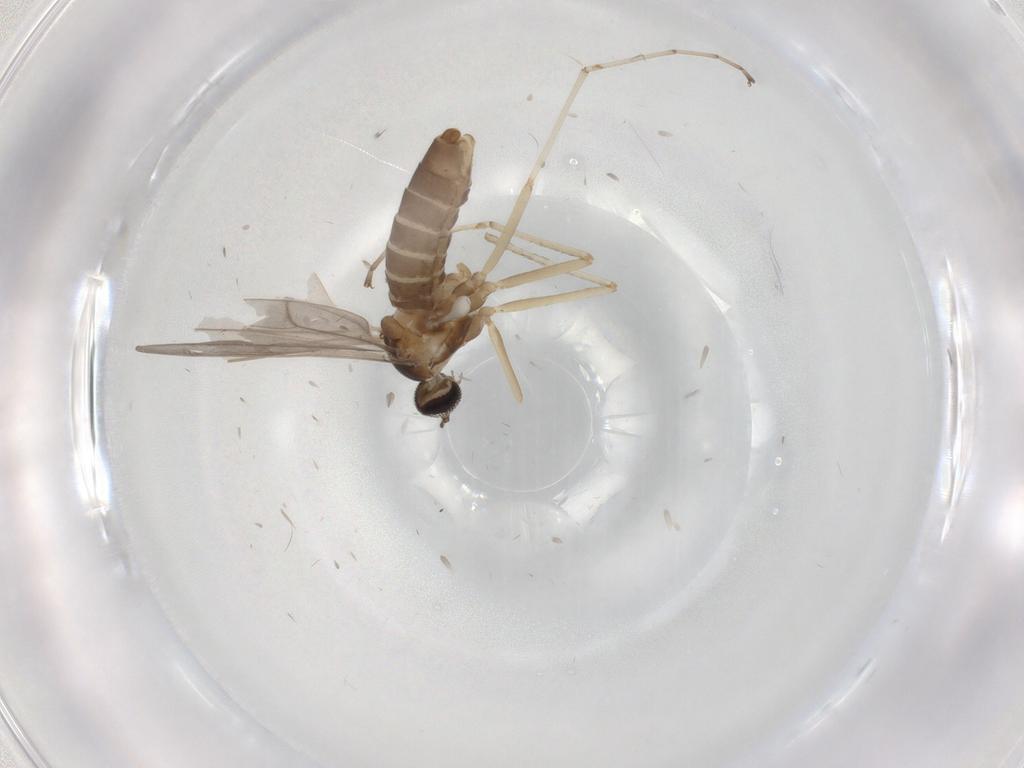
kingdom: Animalia
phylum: Arthropoda
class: Insecta
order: Diptera
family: Cecidomyiidae
